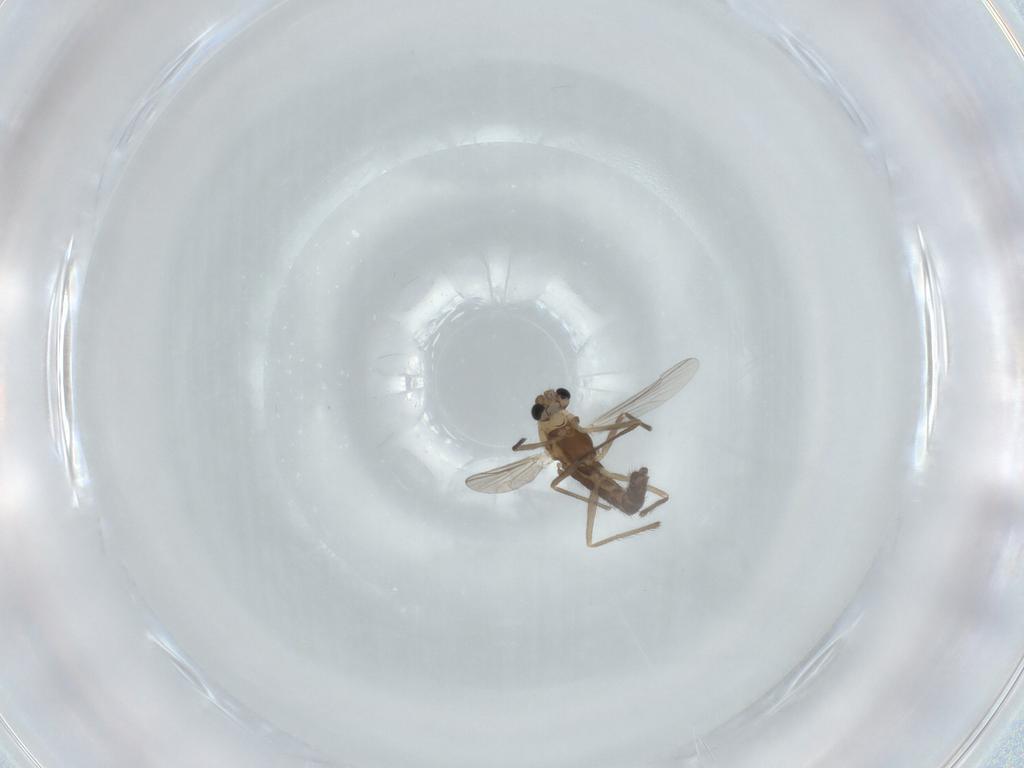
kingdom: Animalia
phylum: Arthropoda
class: Insecta
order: Diptera
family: Chironomidae
